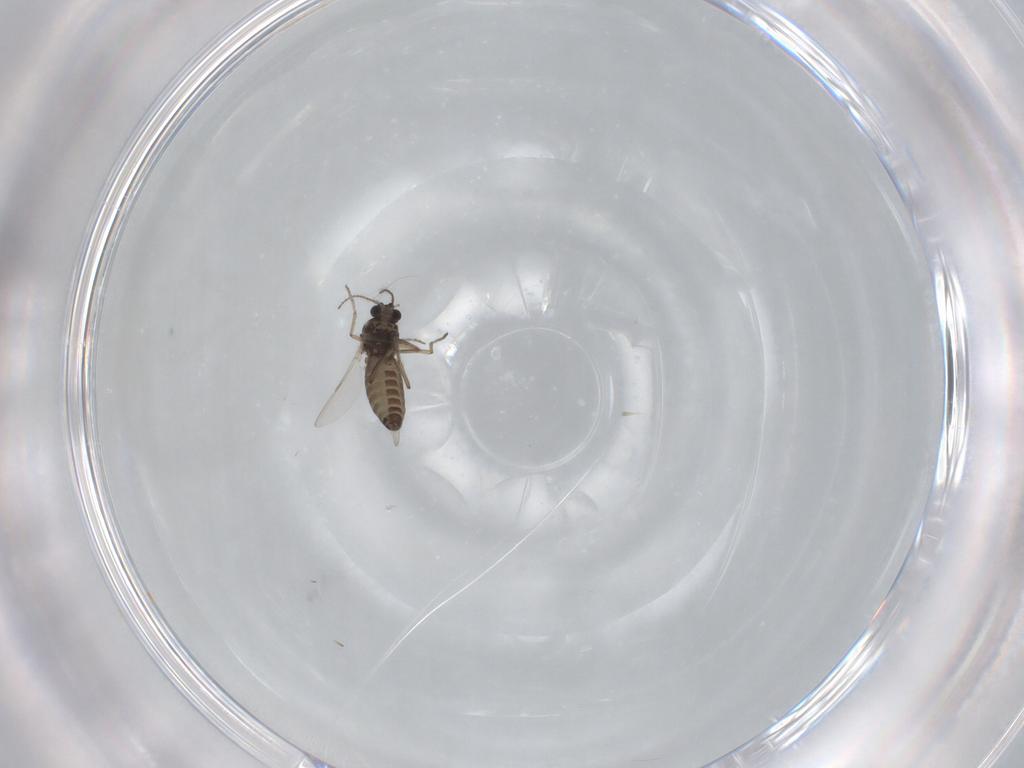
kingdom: Animalia
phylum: Arthropoda
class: Insecta
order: Diptera
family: Ceratopogonidae
